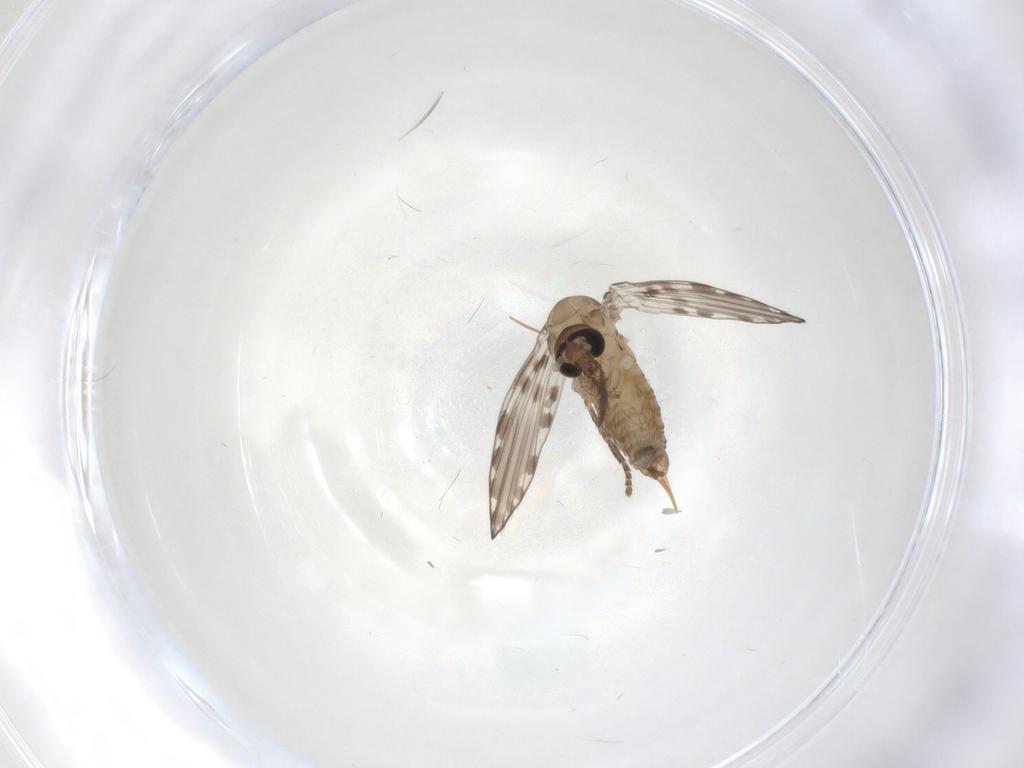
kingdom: Animalia
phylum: Arthropoda
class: Insecta
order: Diptera
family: Psychodidae
